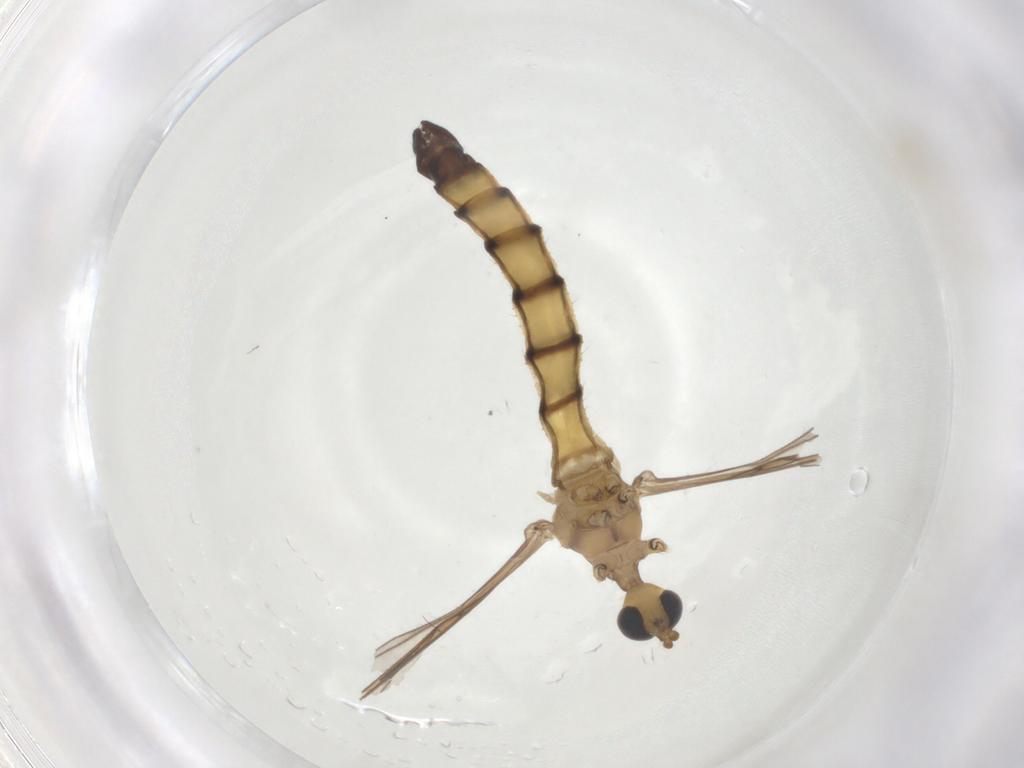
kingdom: Animalia
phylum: Arthropoda
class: Insecta
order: Diptera
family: Limoniidae
